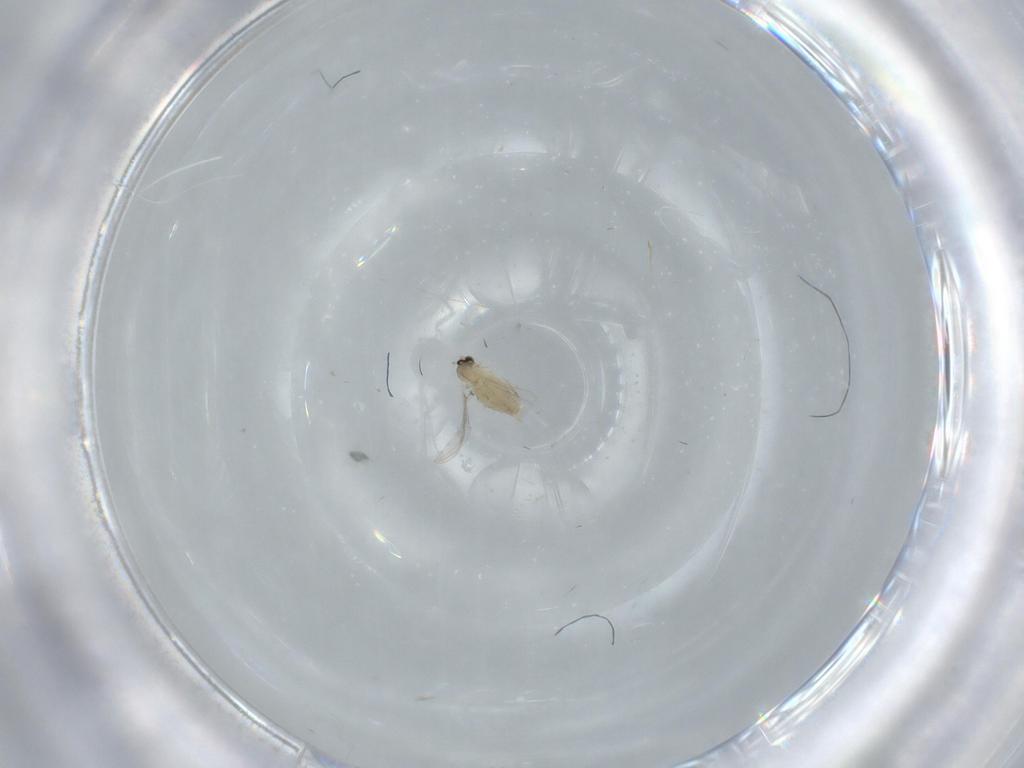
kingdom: Animalia
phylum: Arthropoda
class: Insecta
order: Diptera
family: Cecidomyiidae
